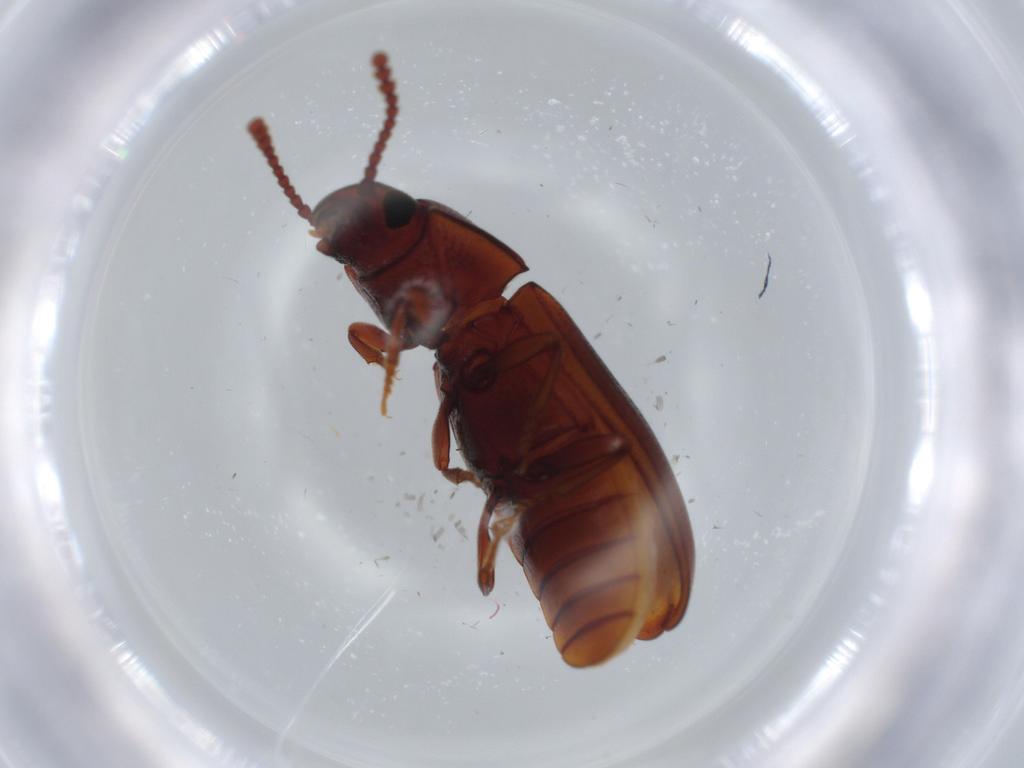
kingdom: Animalia
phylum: Arthropoda
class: Insecta
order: Coleoptera
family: Erotylidae
